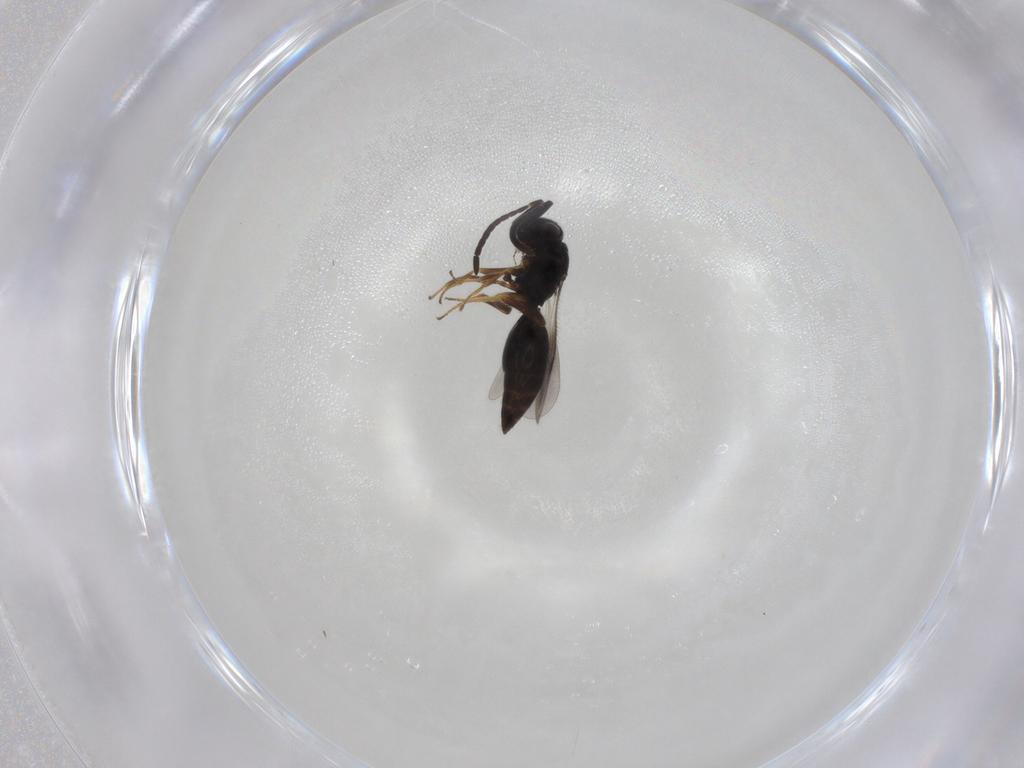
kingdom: Animalia
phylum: Arthropoda
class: Insecta
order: Hymenoptera
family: Megaspilidae
